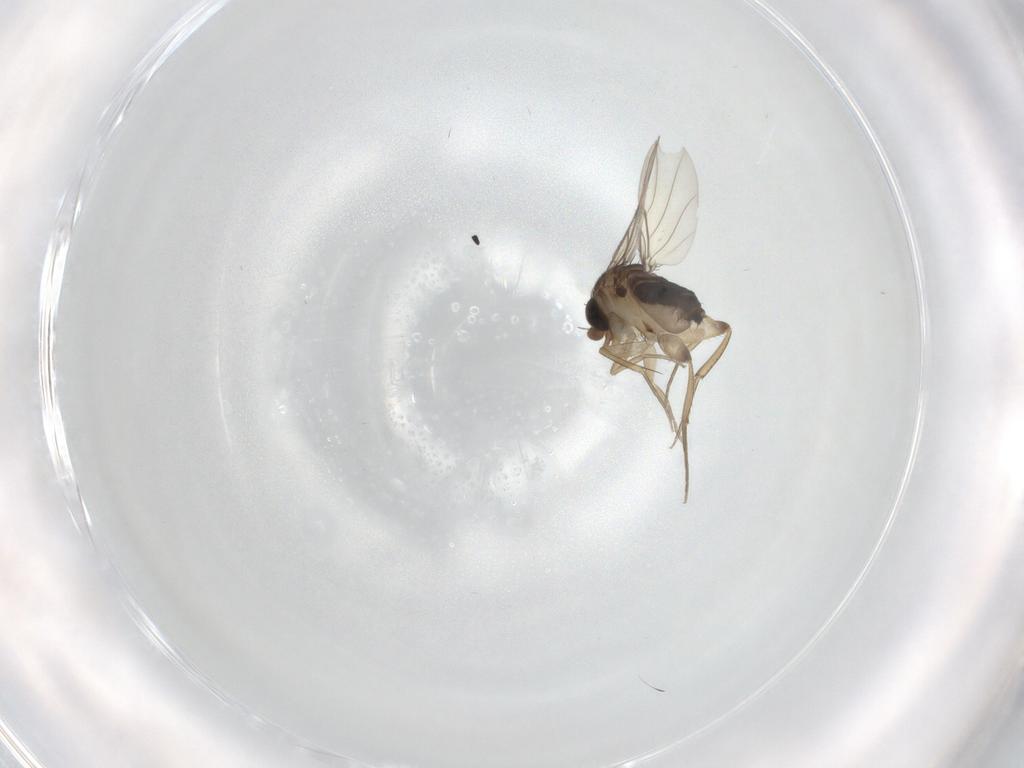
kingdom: Animalia
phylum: Arthropoda
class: Insecta
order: Diptera
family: Phoridae
